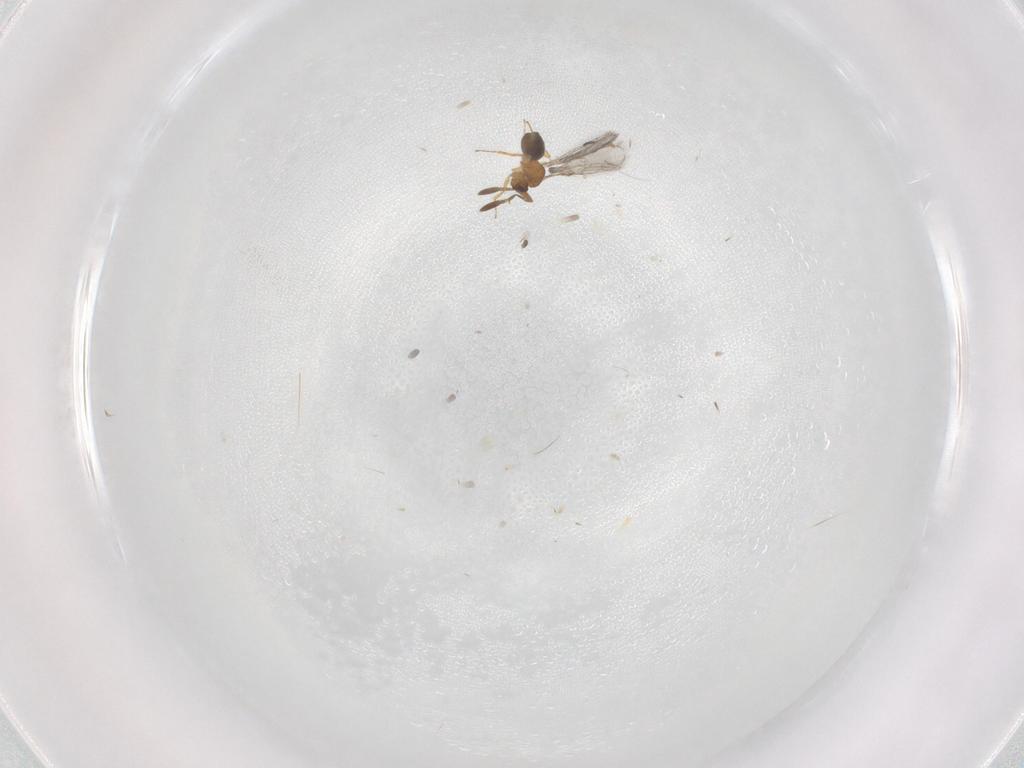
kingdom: Animalia
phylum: Arthropoda
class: Insecta
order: Hymenoptera
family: Mymaridae
